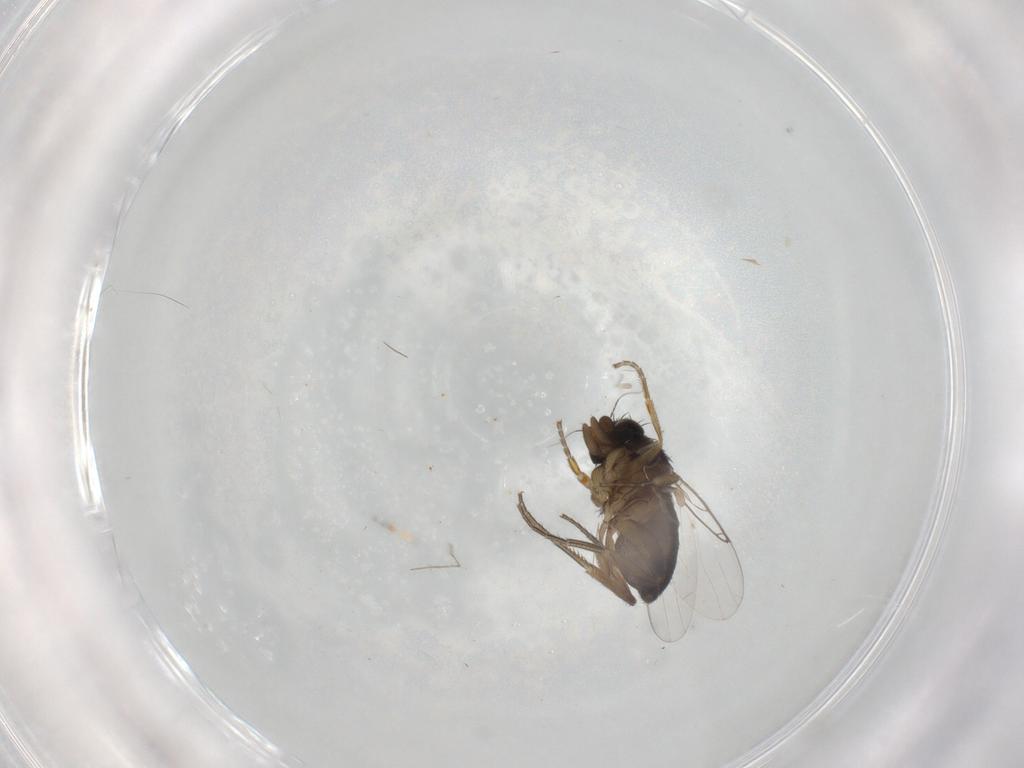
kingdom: Animalia
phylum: Arthropoda
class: Insecta
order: Diptera
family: Phoridae
